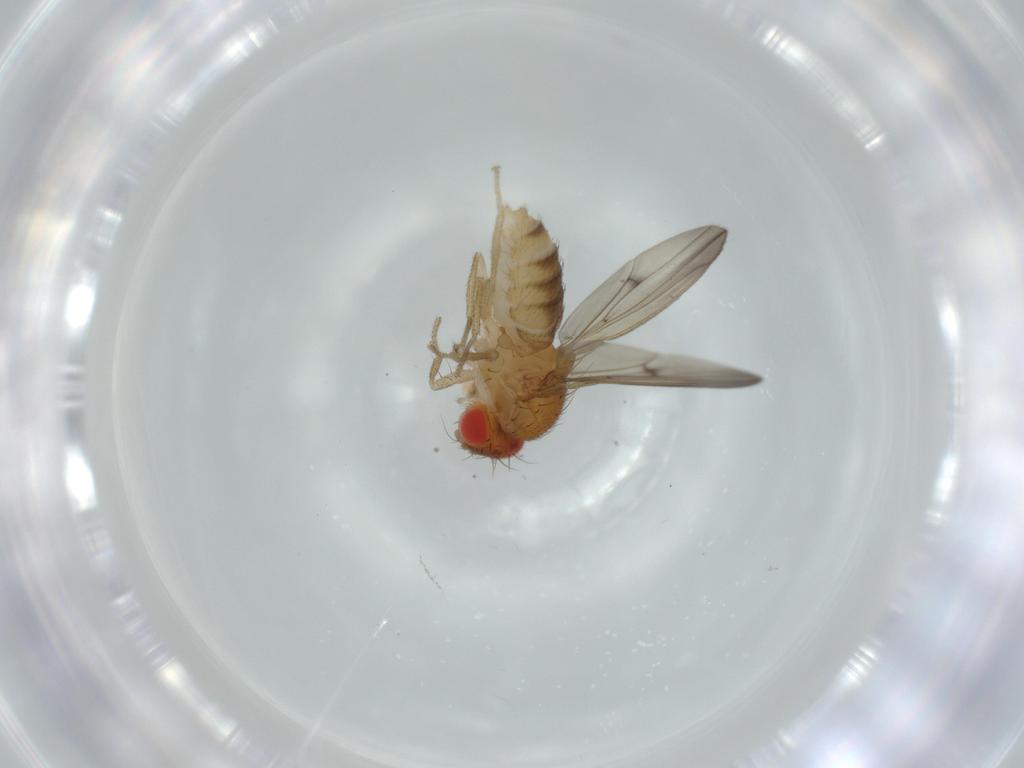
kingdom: Animalia
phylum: Arthropoda
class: Insecta
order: Diptera
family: Drosophilidae
